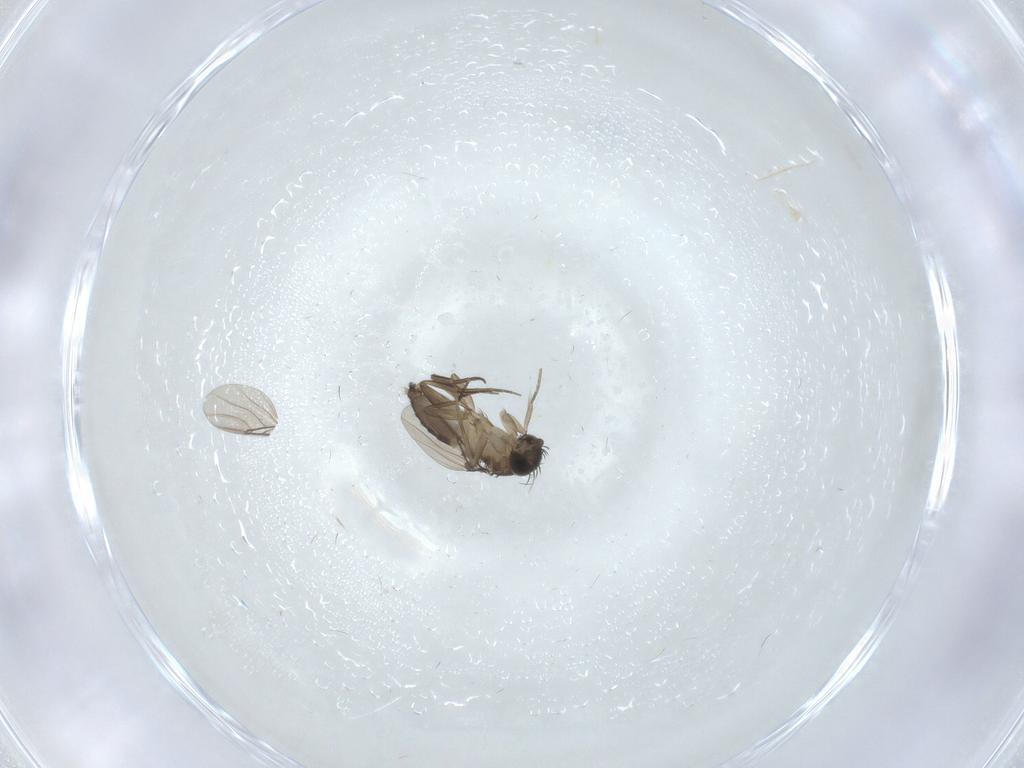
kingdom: Animalia
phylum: Arthropoda
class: Insecta
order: Diptera
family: Phoridae
